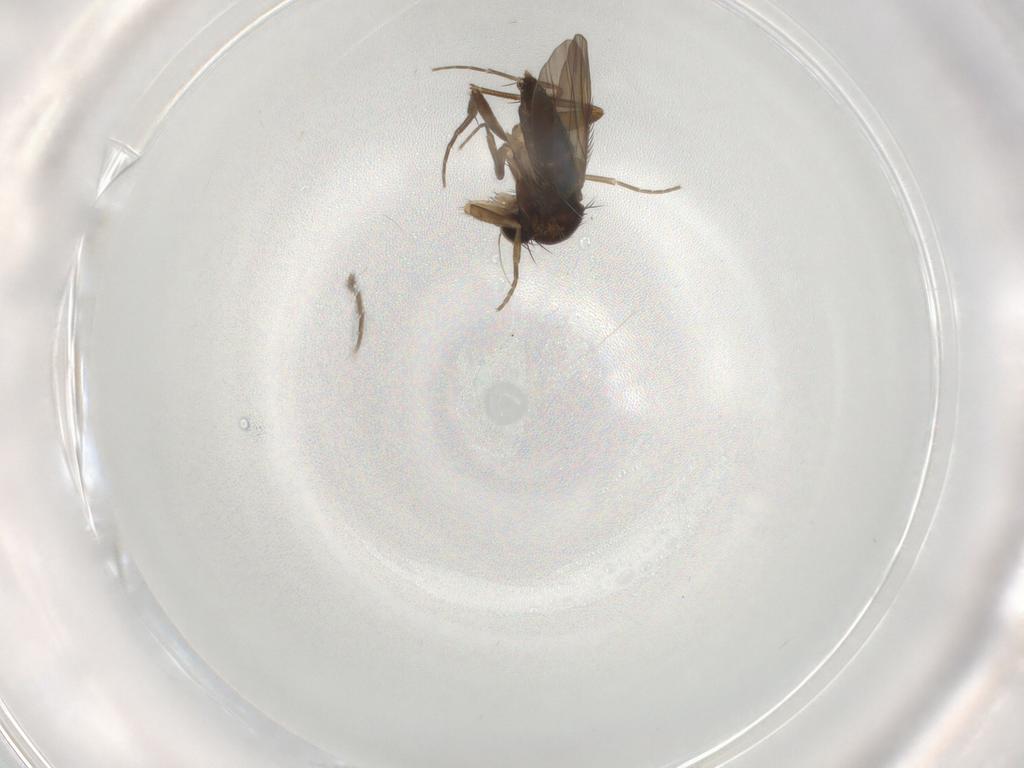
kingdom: Animalia
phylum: Arthropoda
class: Insecta
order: Diptera
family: Phoridae
